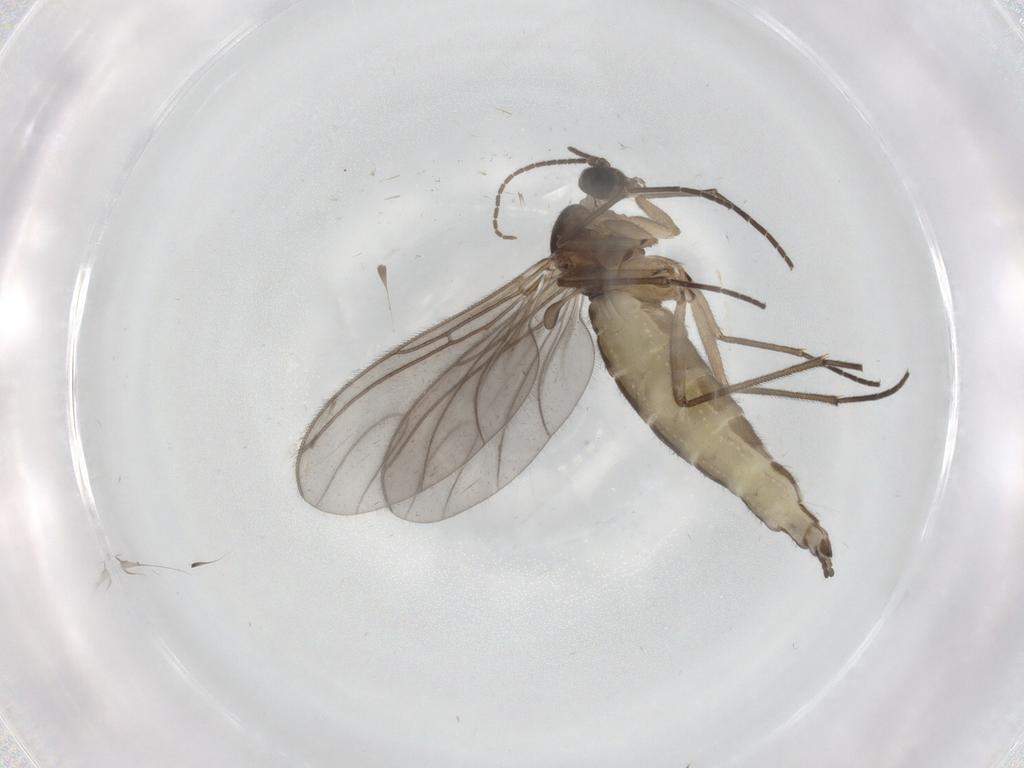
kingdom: Animalia
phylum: Arthropoda
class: Insecta
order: Diptera
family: Sciaridae
